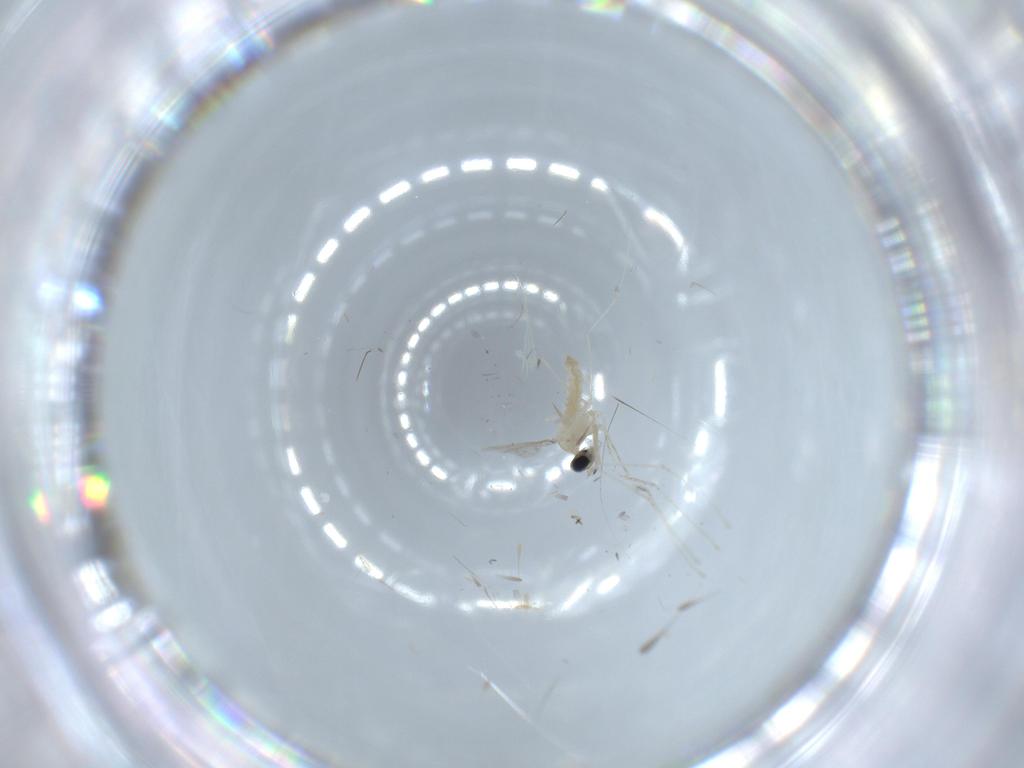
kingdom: Animalia
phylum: Arthropoda
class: Insecta
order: Diptera
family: Cecidomyiidae
